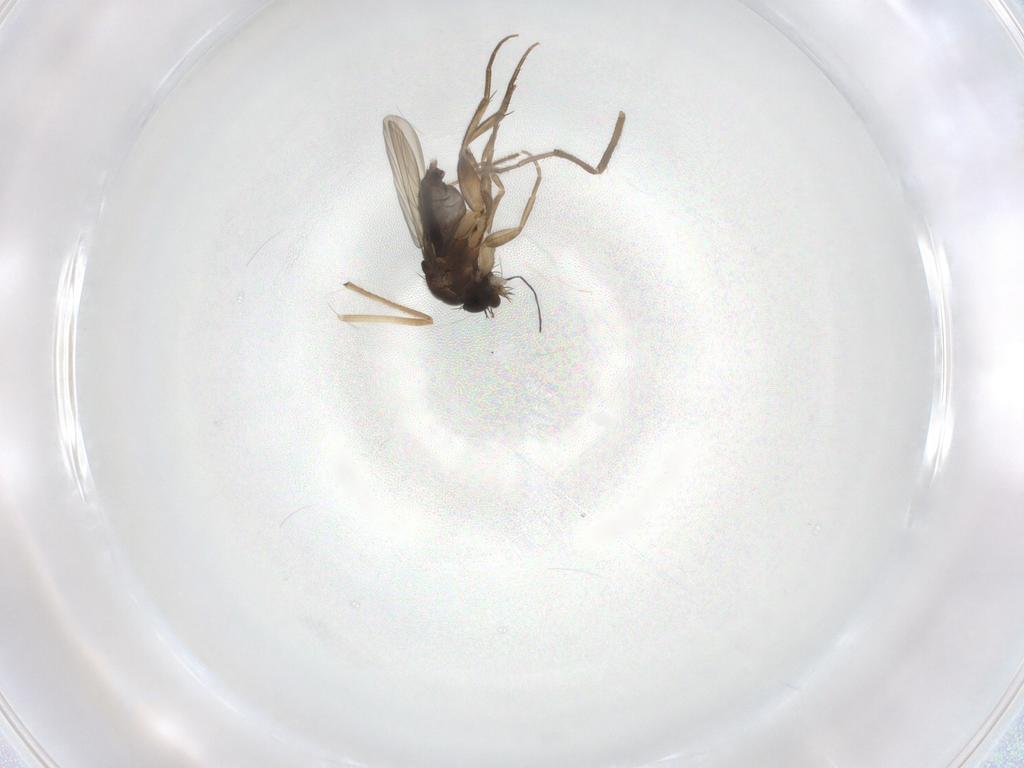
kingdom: Animalia
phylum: Arthropoda
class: Insecta
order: Diptera
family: Phoridae
